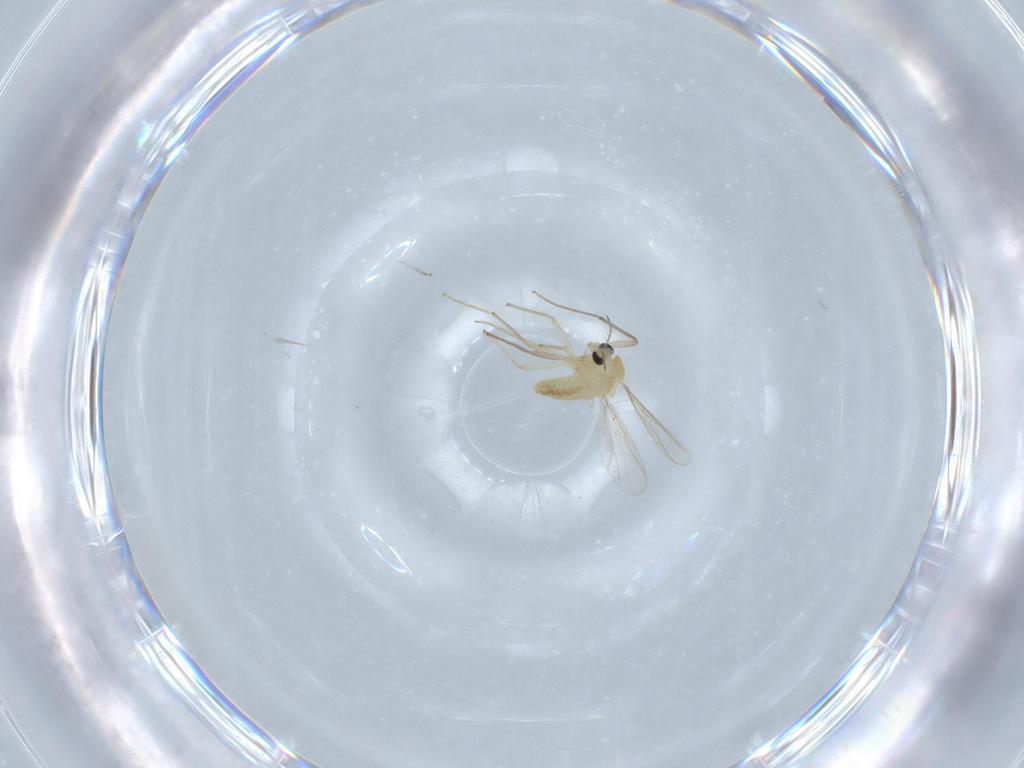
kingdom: Animalia
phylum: Arthropoda
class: Insecta
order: Diptera
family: Chironomidae
